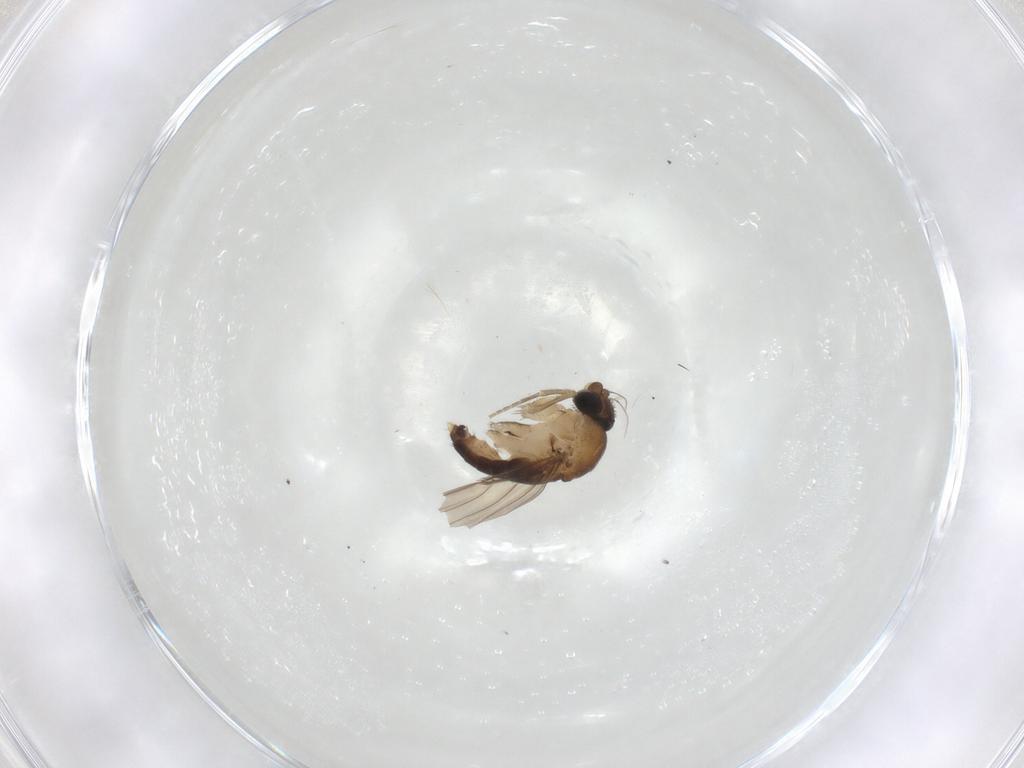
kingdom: Animalia
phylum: Arthropoda
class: Insecta
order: Diptera
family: Phoridae
